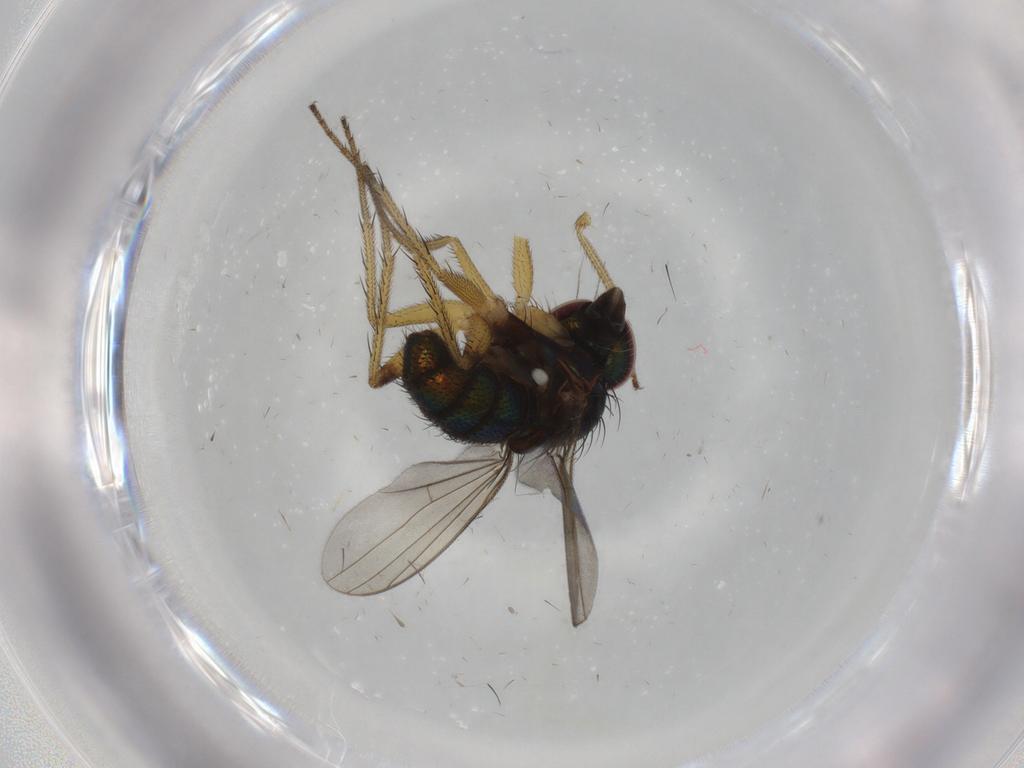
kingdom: Animalia
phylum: Arthropoda
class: Insecta
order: Diptera
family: Dolichopodidae
